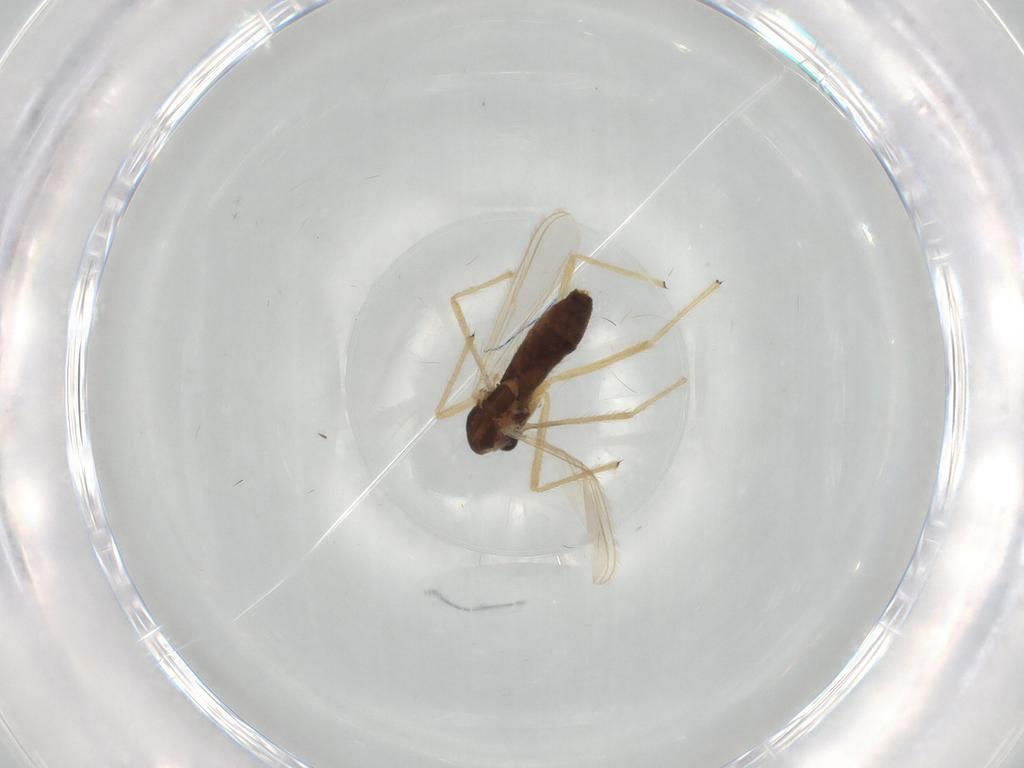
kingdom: Animalia
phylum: Arthropoda
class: Insecta
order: Diptera
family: Chironomidae
